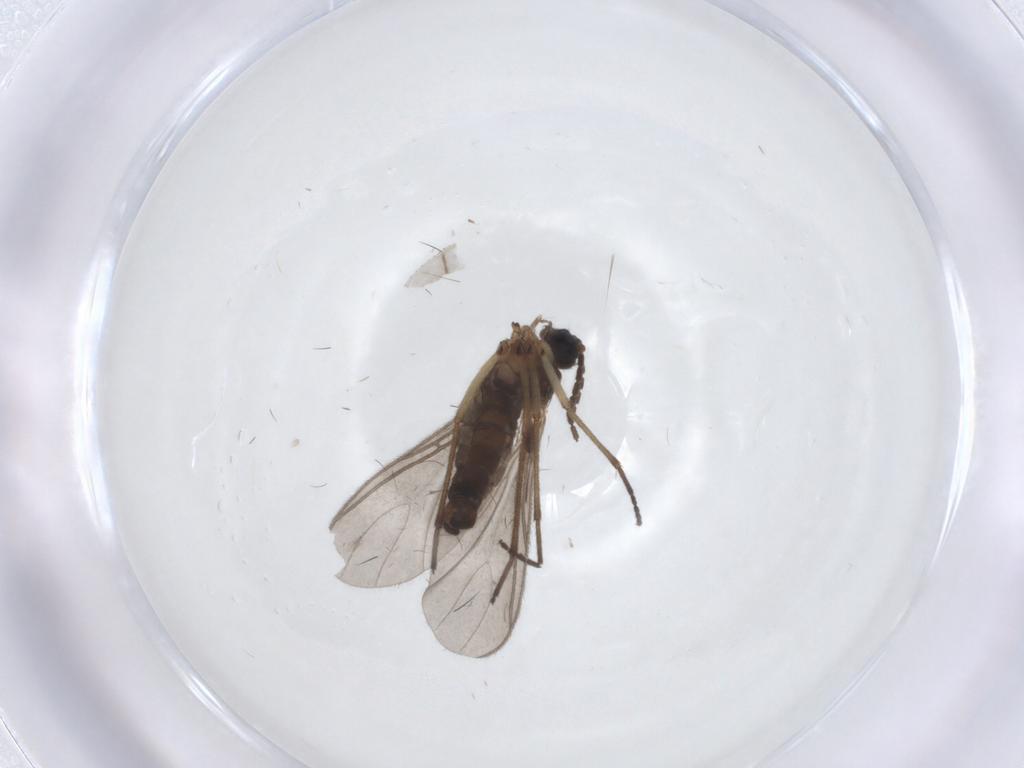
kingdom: Animalia
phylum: Arthropoda
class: Insecta
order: Diptera
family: Sciaridae
